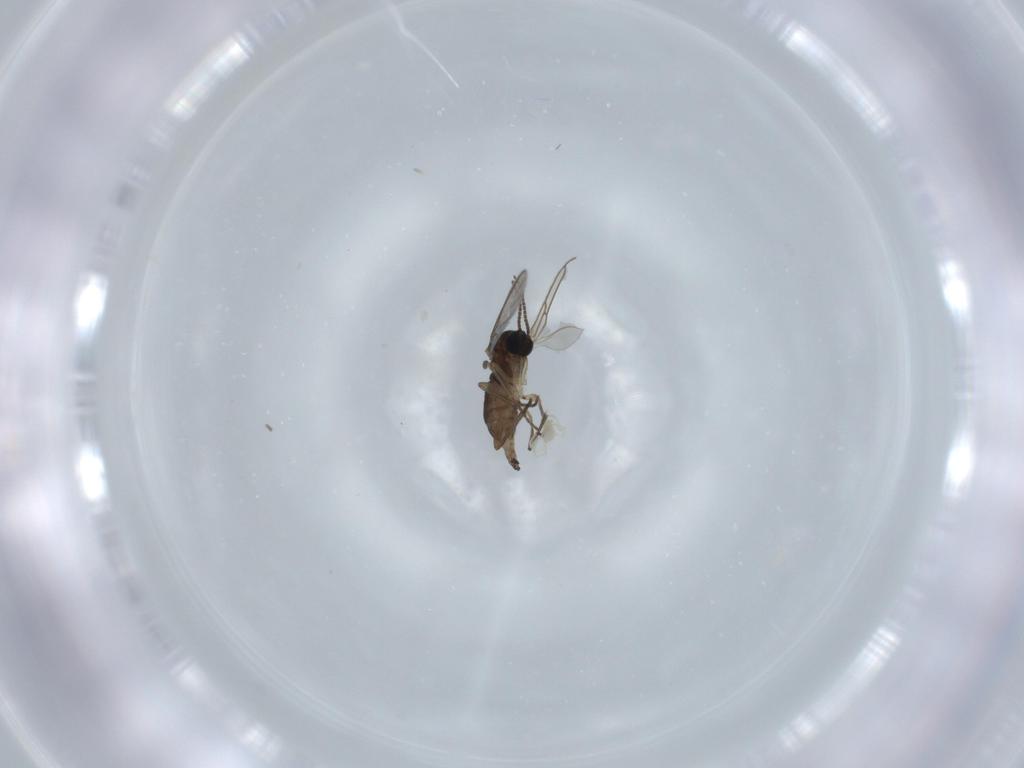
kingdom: Animalia
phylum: Arthropoda
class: Insecta
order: Diptera
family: Sciaridae
